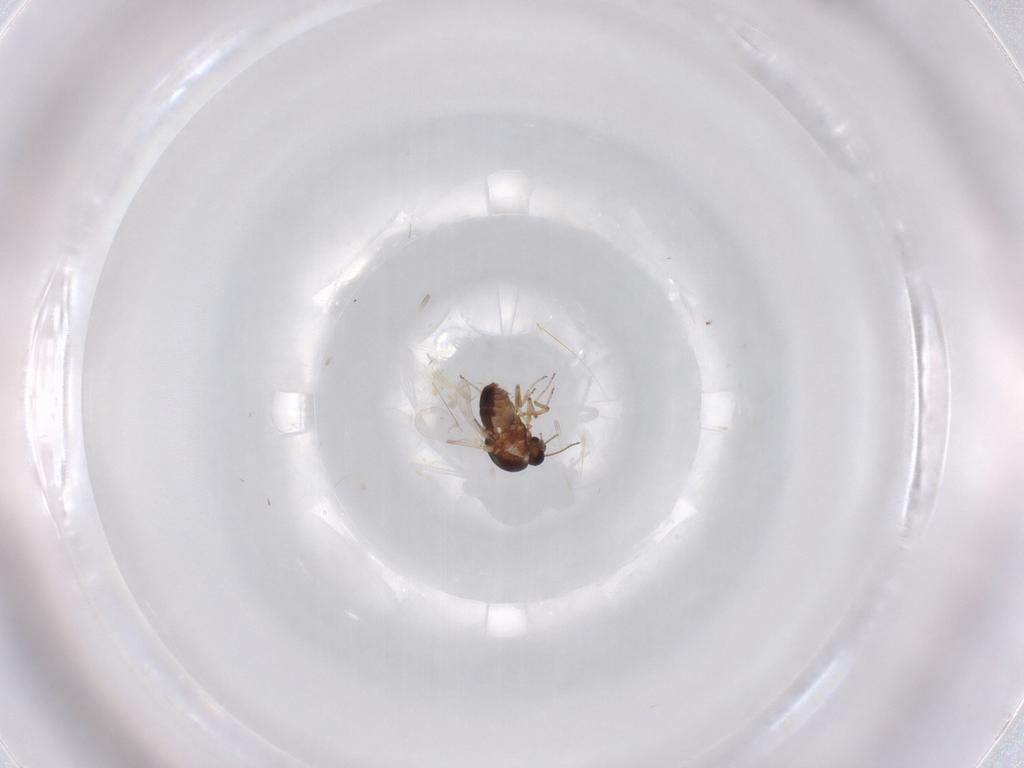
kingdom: Animalia
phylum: Arthropoda
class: Insecta
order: Diptera
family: Ceratopogonidae
